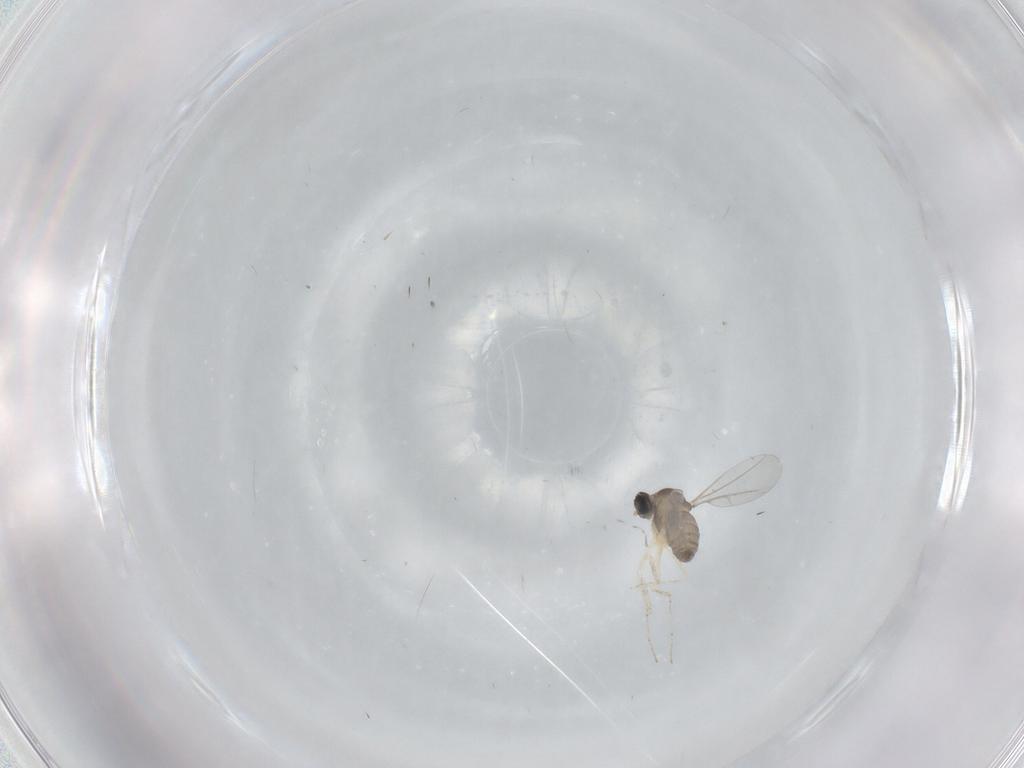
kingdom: Animalia
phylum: Arthropoda
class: Insecta
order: Diptera
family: Cecidomyiidae
